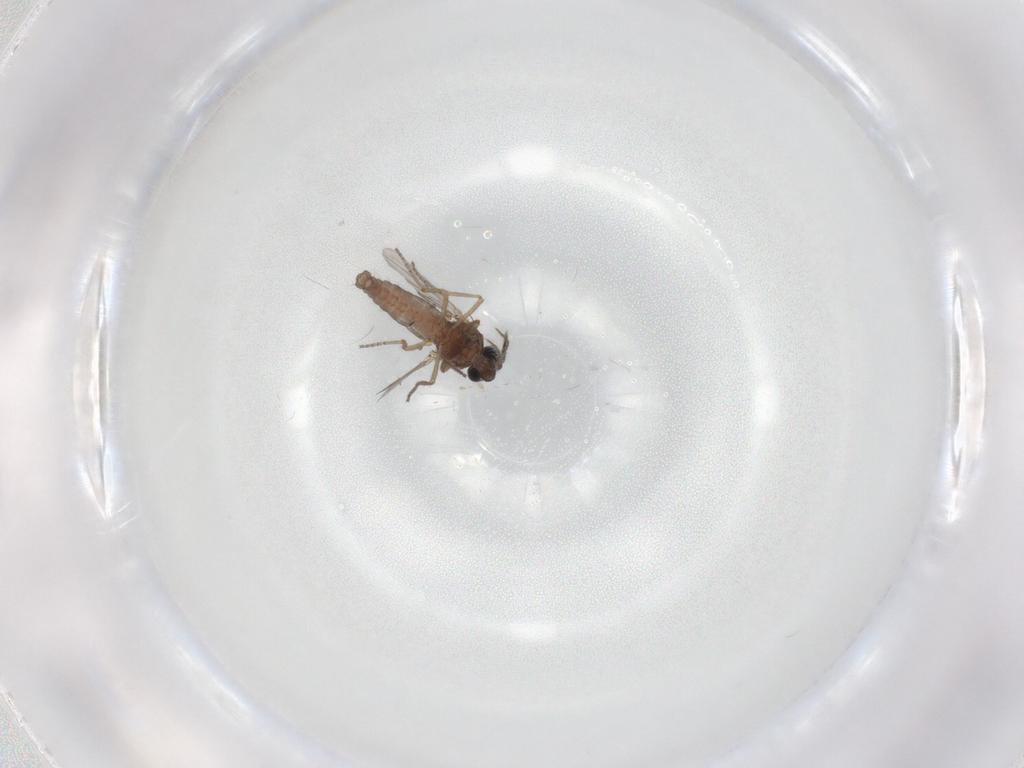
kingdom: Animalia
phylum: Arthropoda
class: Insecta
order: Diptera
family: Ceratopogonidae
